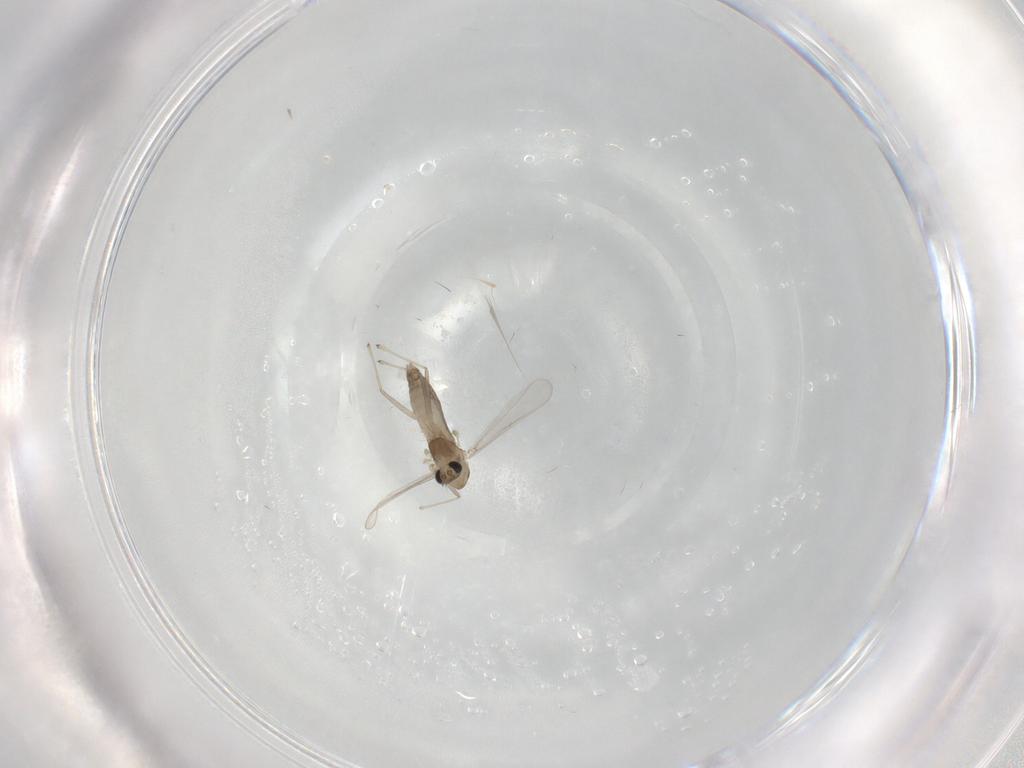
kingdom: Animalia
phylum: Arthropoda
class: Insecta
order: Diptera
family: Chironomidae
